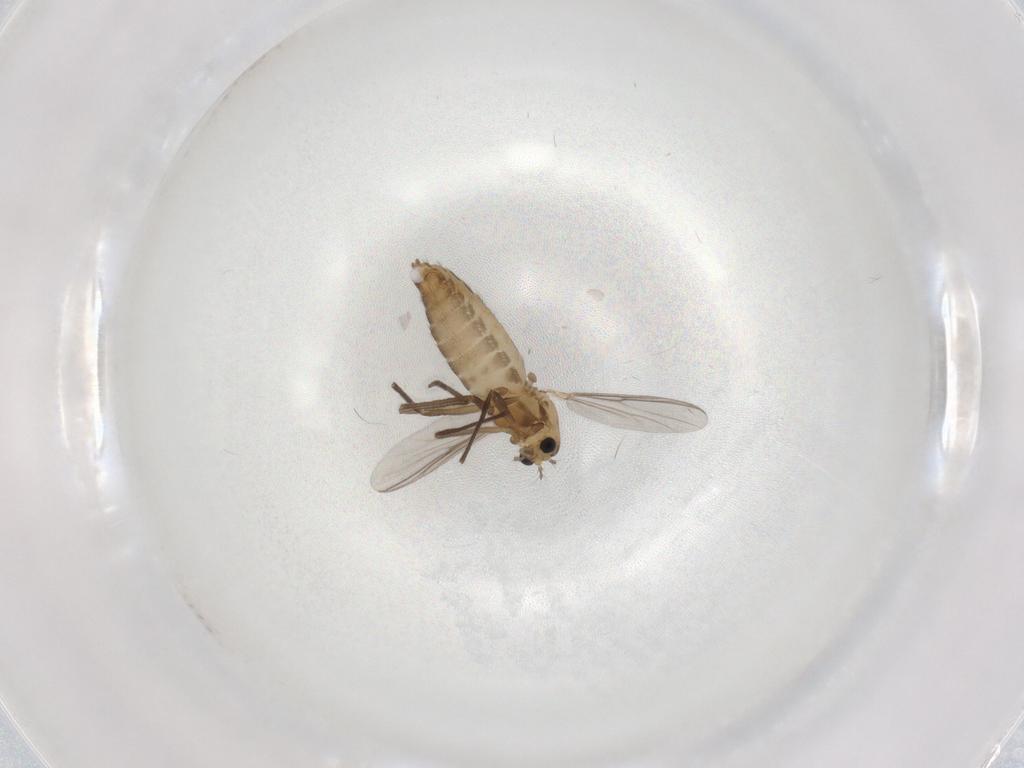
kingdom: Animalia
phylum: Arthropoda
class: Insecta
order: Diptera
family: Chironomidae
